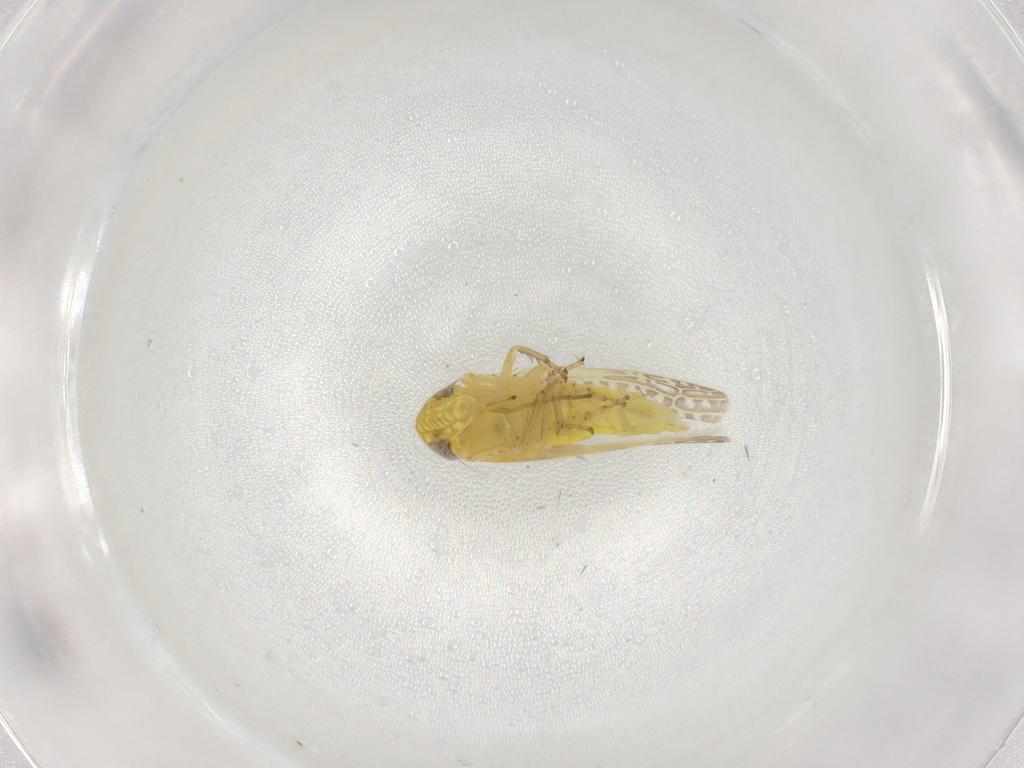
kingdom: Animalia
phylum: Arthropoda
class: Insecta
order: Hemiptera
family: Cicadellidae
